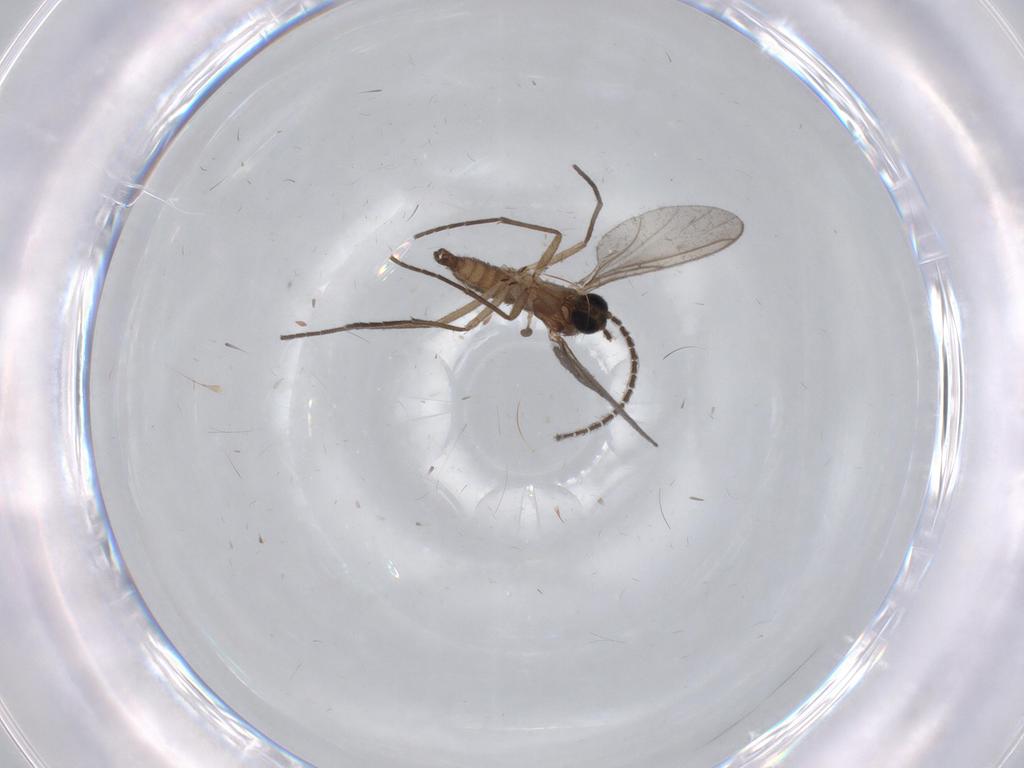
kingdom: Animalia
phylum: Arthropoda
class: Insecta
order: Diptera
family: Sciaridae
